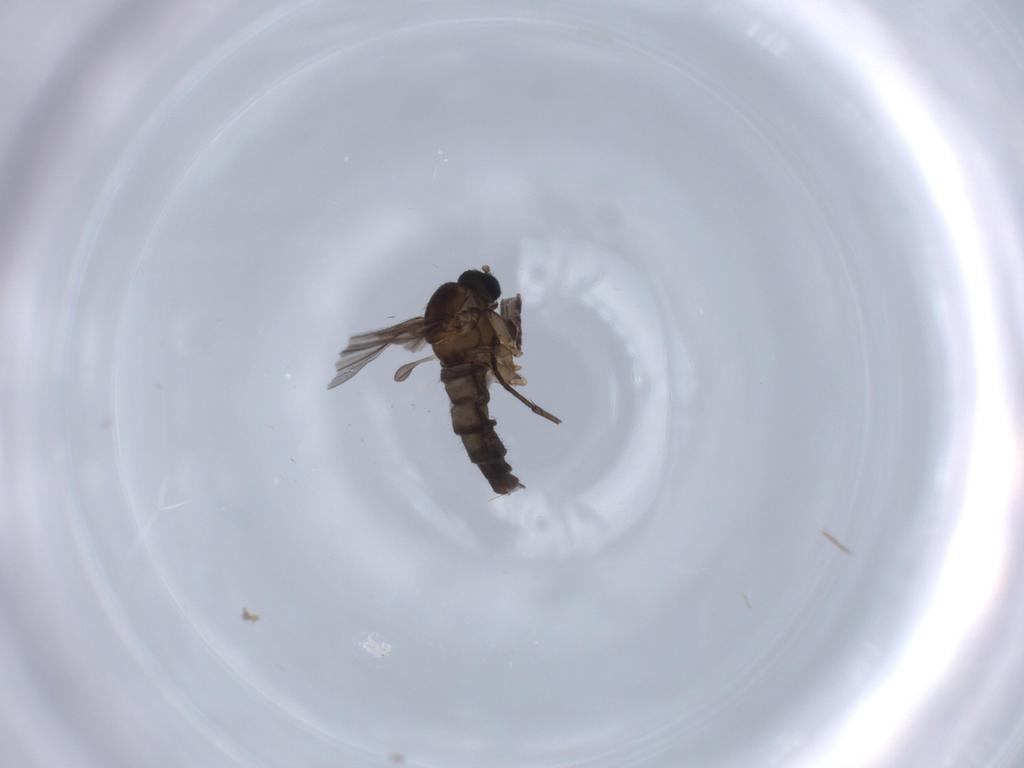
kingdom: Animalia
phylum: Arthropoda
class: Insecta
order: Diptera
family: Sciaridae
